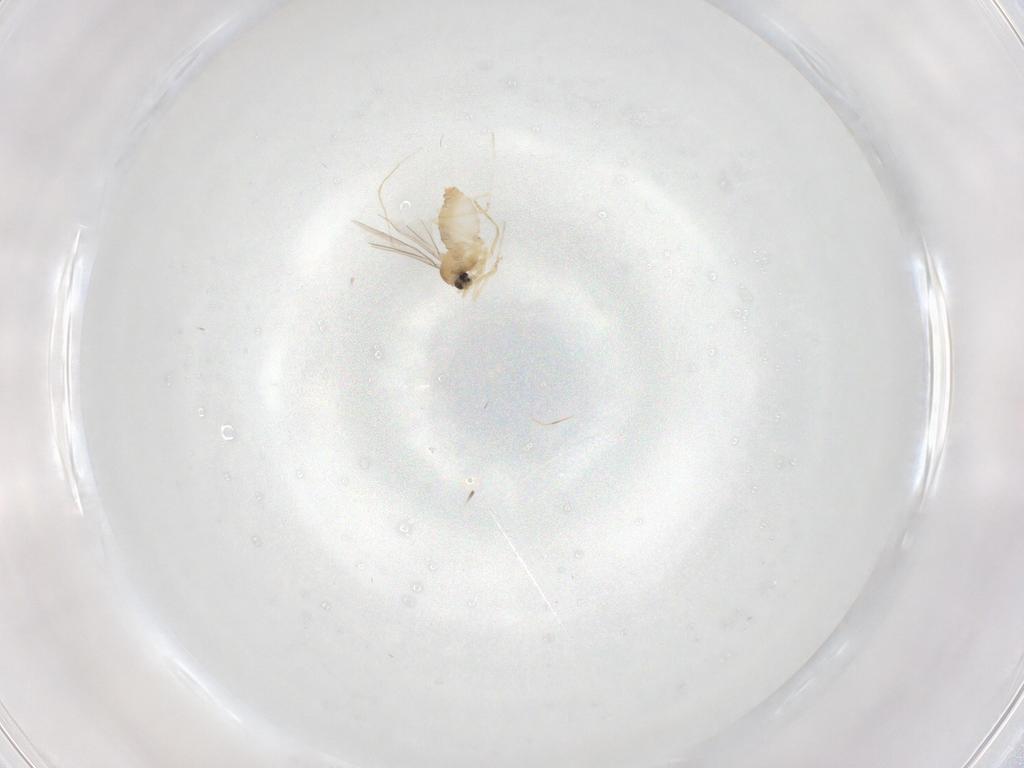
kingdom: Animalia
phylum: Arthropoda
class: Insecta
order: Diptera
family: Cecidomyiidae
